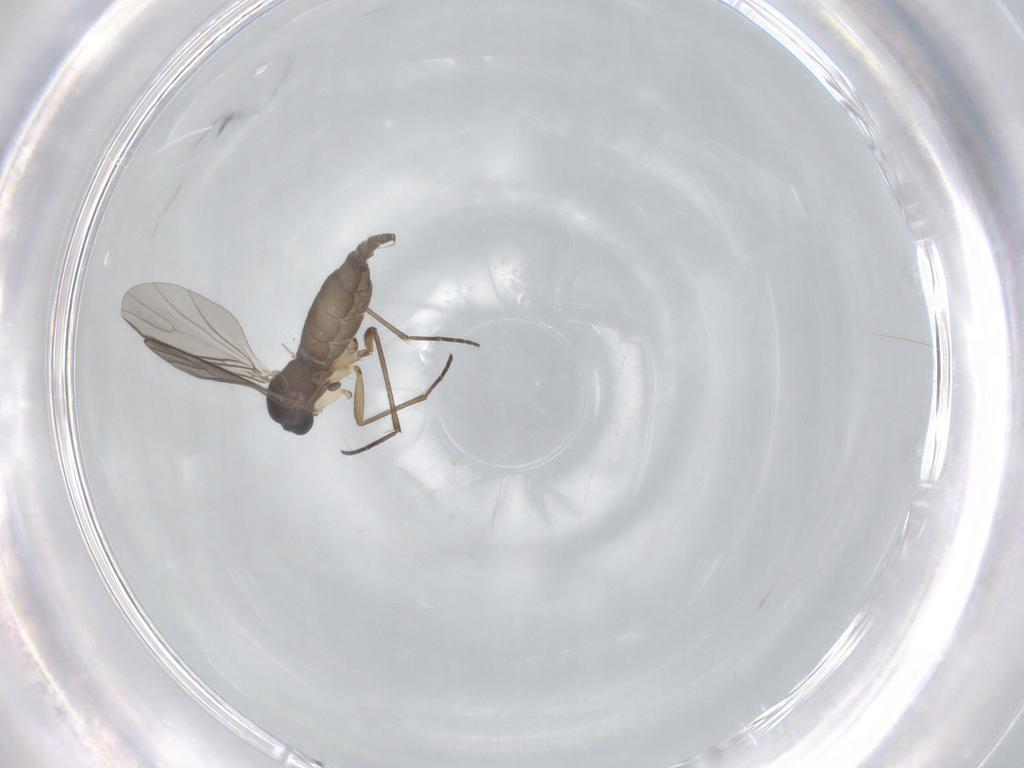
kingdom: Animalia
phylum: Arthropoda
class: Insecta
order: Diptera
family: Sciaridae
